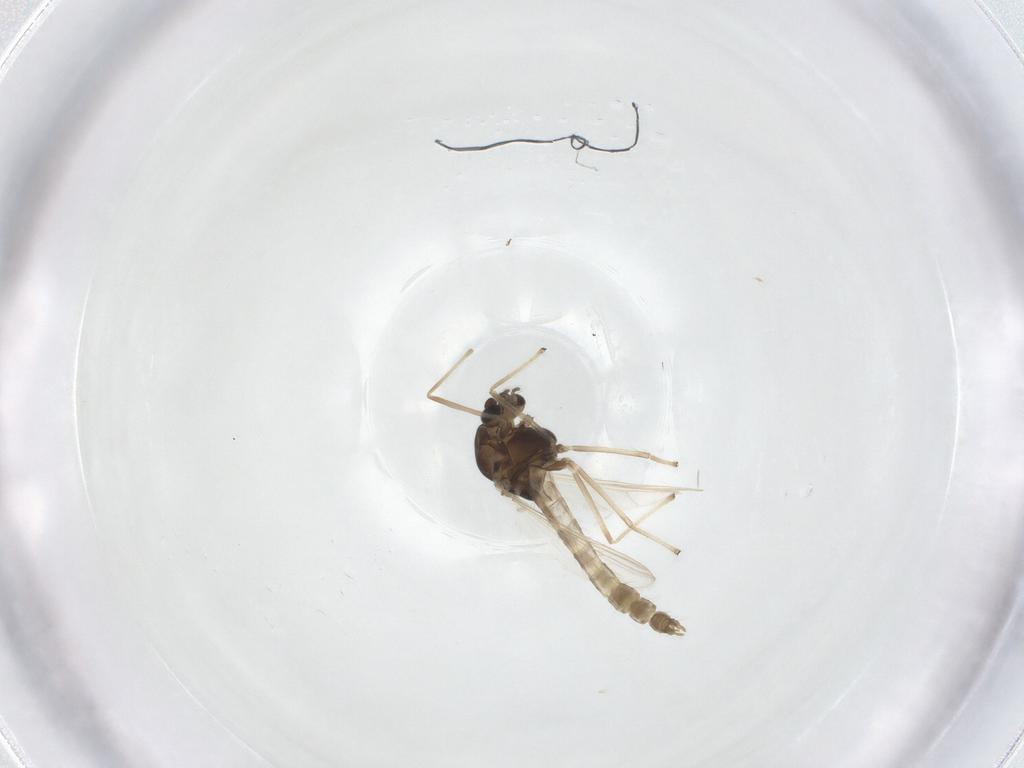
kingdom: Animalia
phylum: Arthropoda
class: Insecta
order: Diptera
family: Chironomidae
